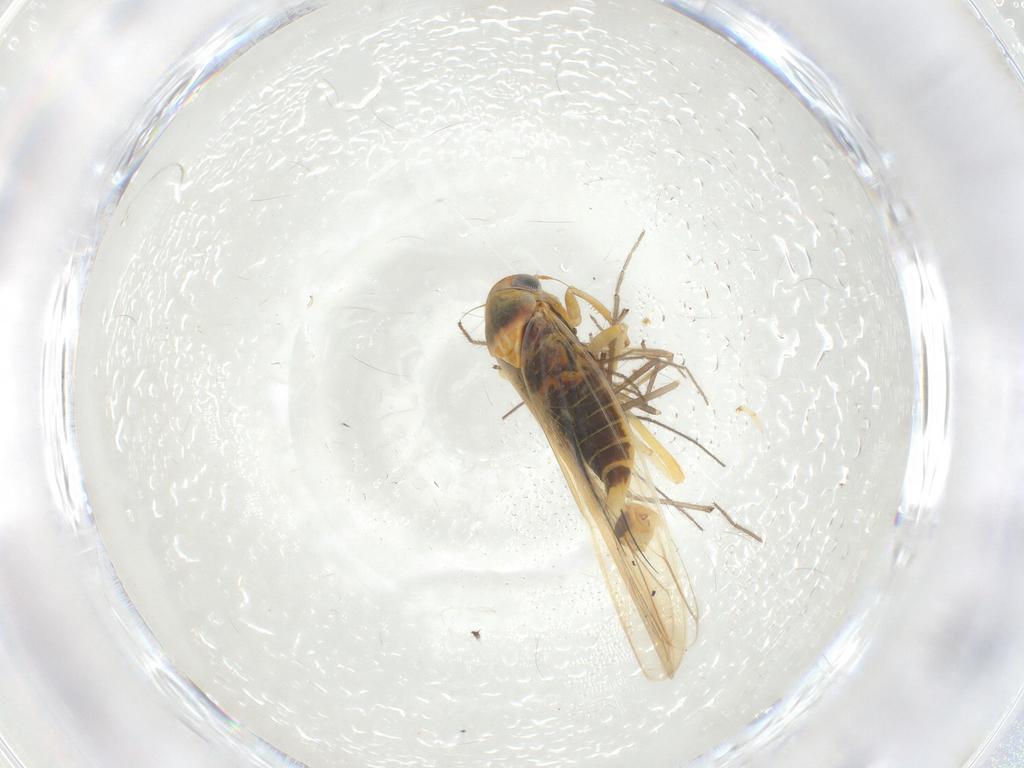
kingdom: Animalia
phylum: Arthropoda
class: Insecta
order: Hemiptera
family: Cicadellidae
